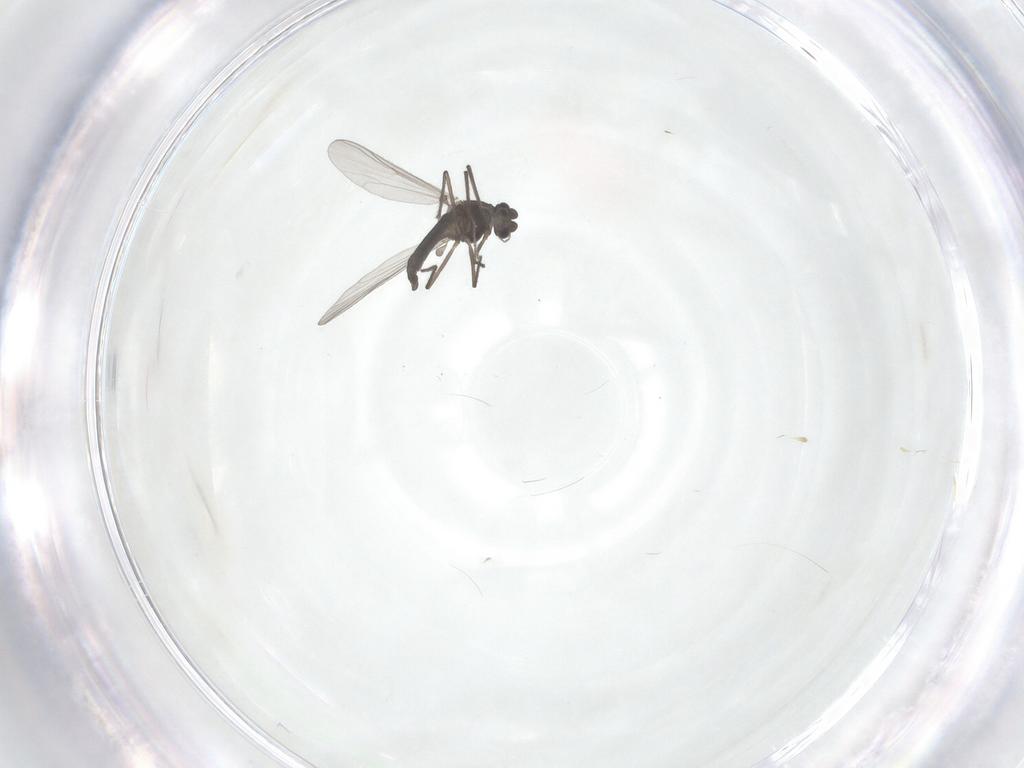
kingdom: Animalia
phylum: Arthropoda
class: Insecta
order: Diptera
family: Chironomidae
